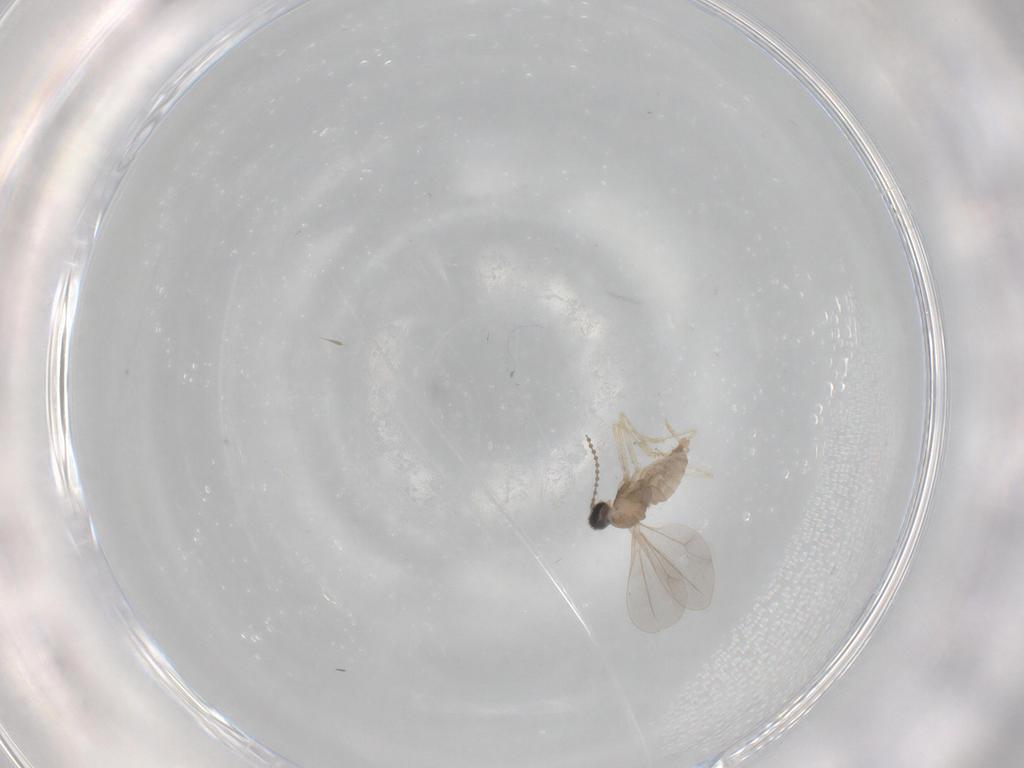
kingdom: Animalia
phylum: Arthropoda
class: Insecta
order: Diptera
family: Cecidomyiidae
